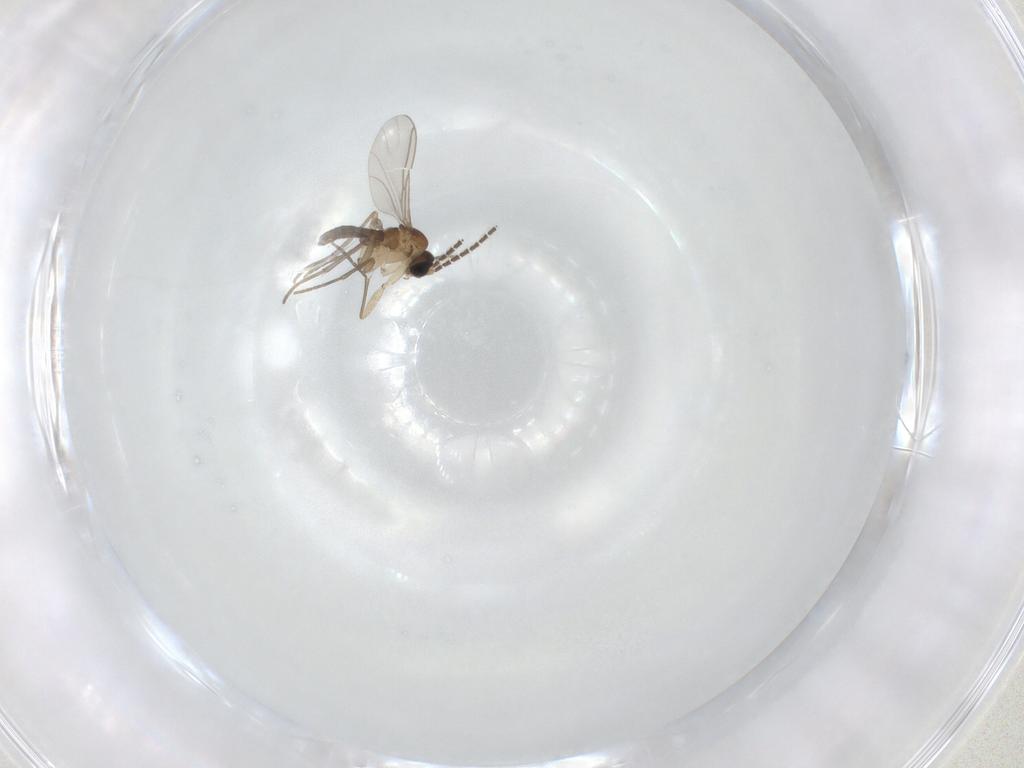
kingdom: Animalia
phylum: Arthropoda
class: Insecta
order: Diptera
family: Sciaridae
